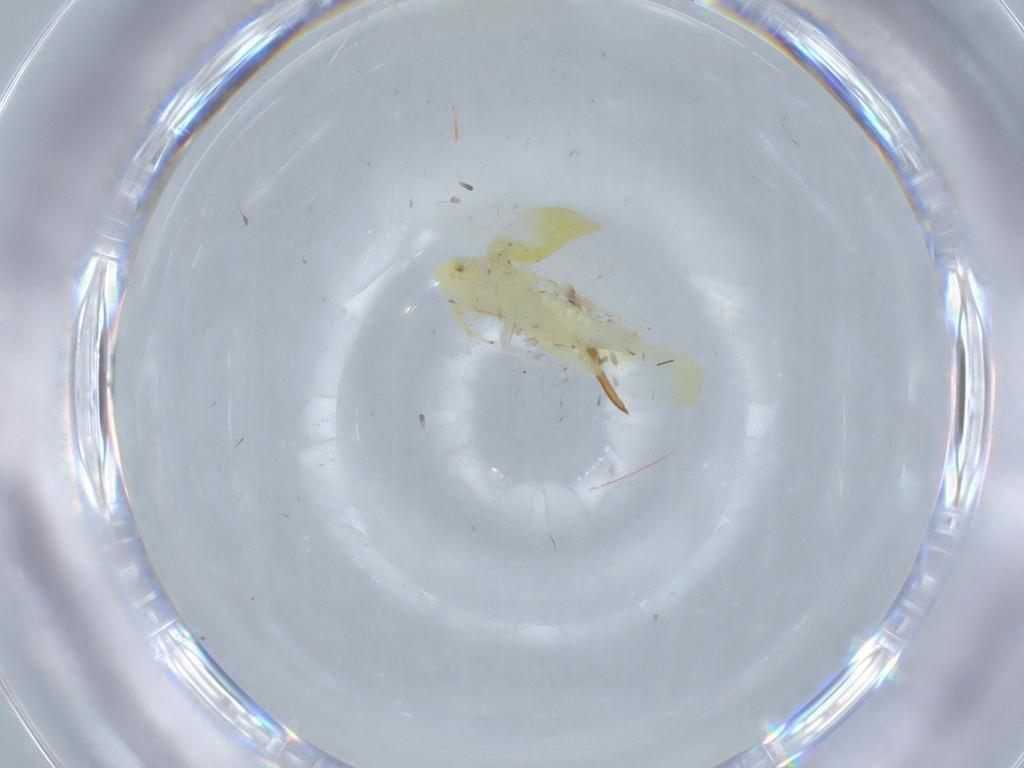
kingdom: Animalia
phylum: Arthropoda
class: Insecta
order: Hemiptera
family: Cicadellidae
